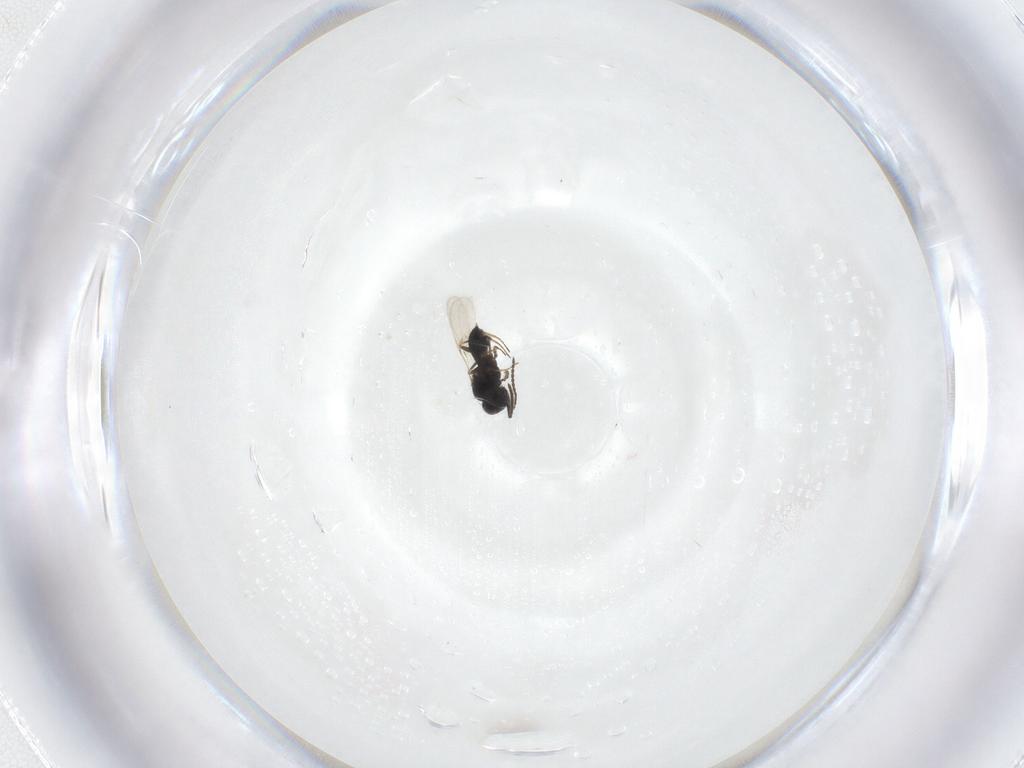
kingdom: Animalia
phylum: Arthropoda
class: Insecta
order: Hymenoptera
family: Scelionidae
